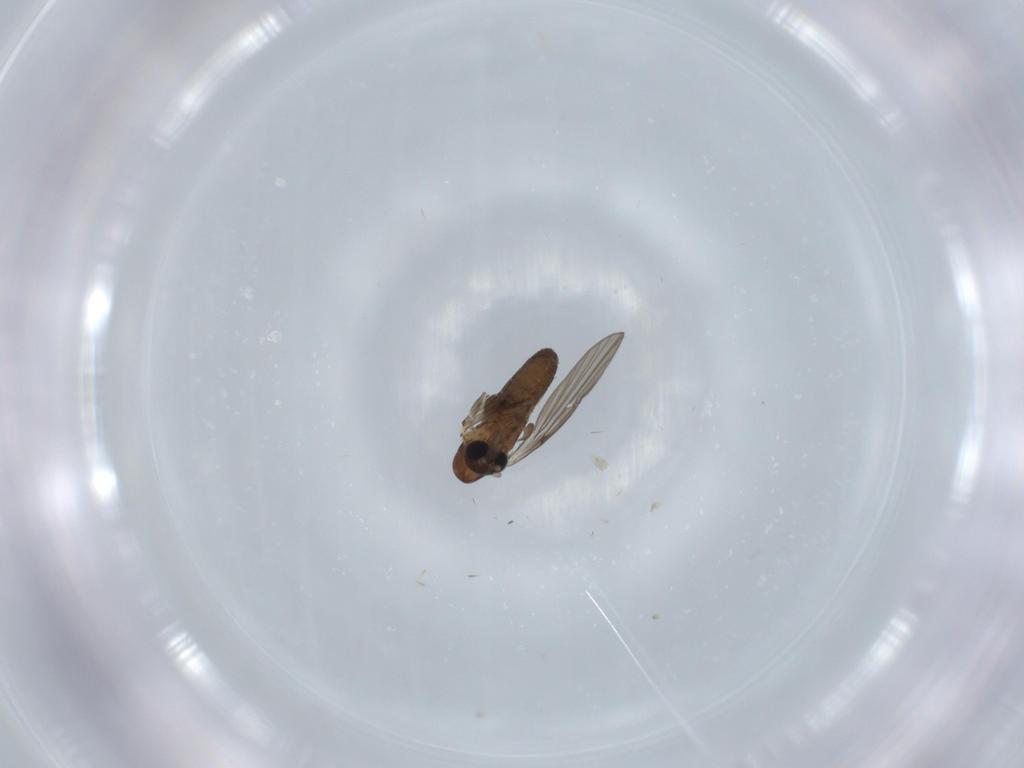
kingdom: Animalia
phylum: Arthropoda
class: Insecta
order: Diptera
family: Psychodidae
